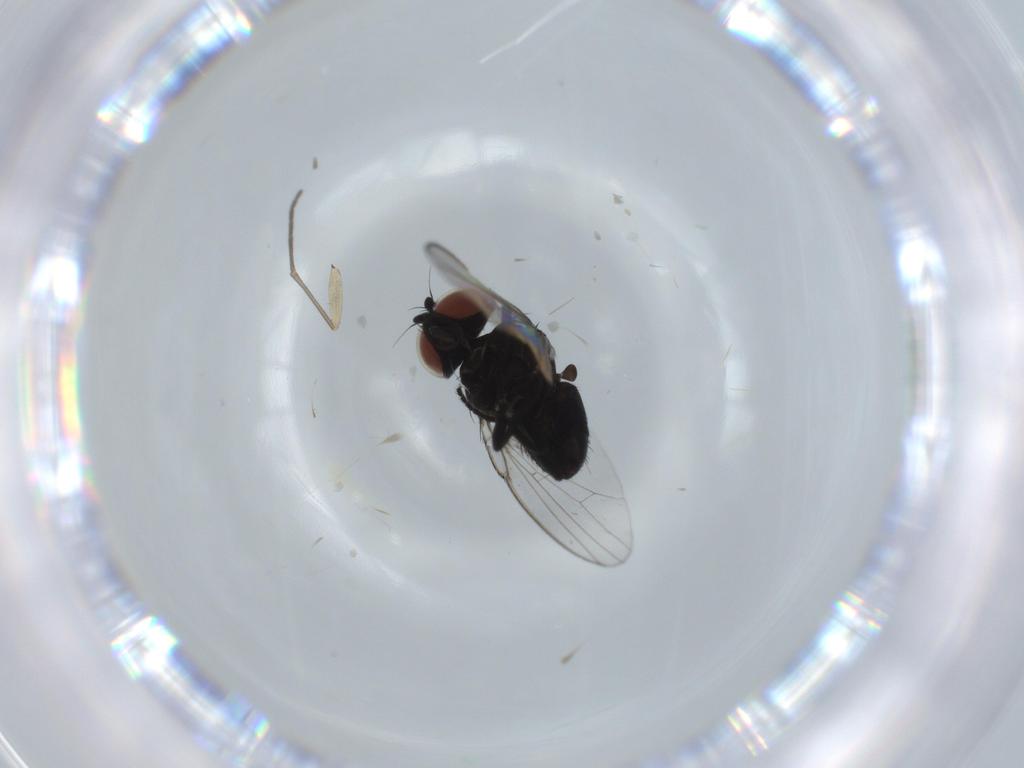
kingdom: Animalia
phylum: Arthropoda
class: Insecta
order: Diptera
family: Milichiidae
